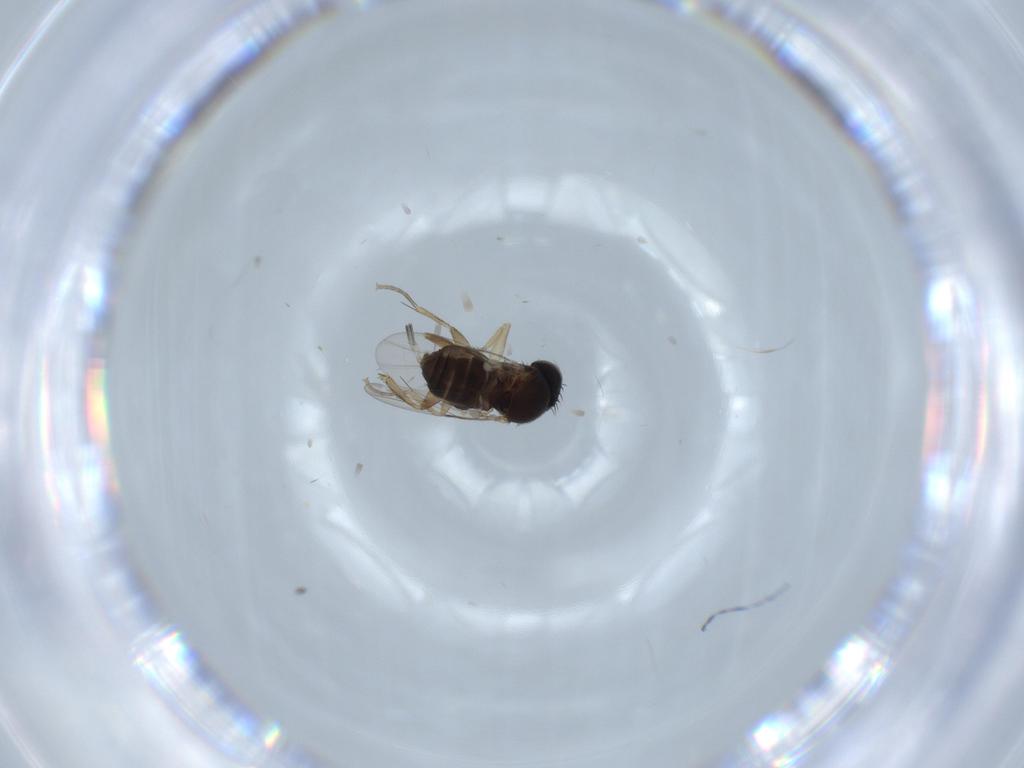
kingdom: Animalia
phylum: Arthropoda
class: Insecta
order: Diptera
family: Phoridae
